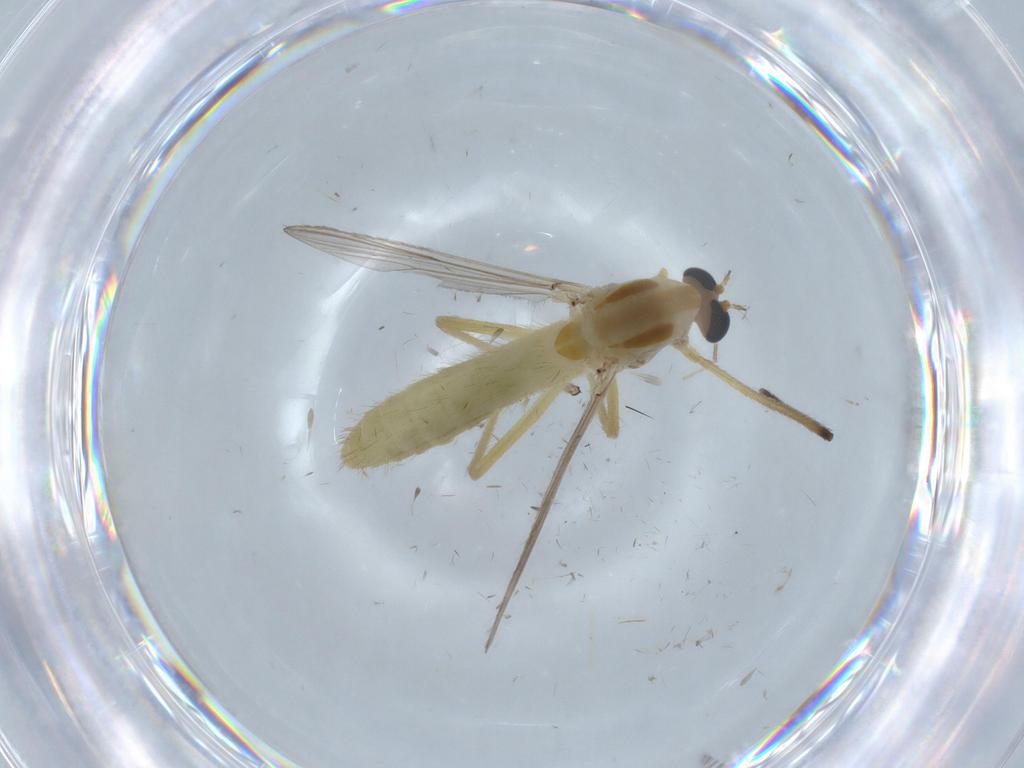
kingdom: Animalia
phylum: Arthropoda
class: Insecta
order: Diptera
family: Chironomidae
